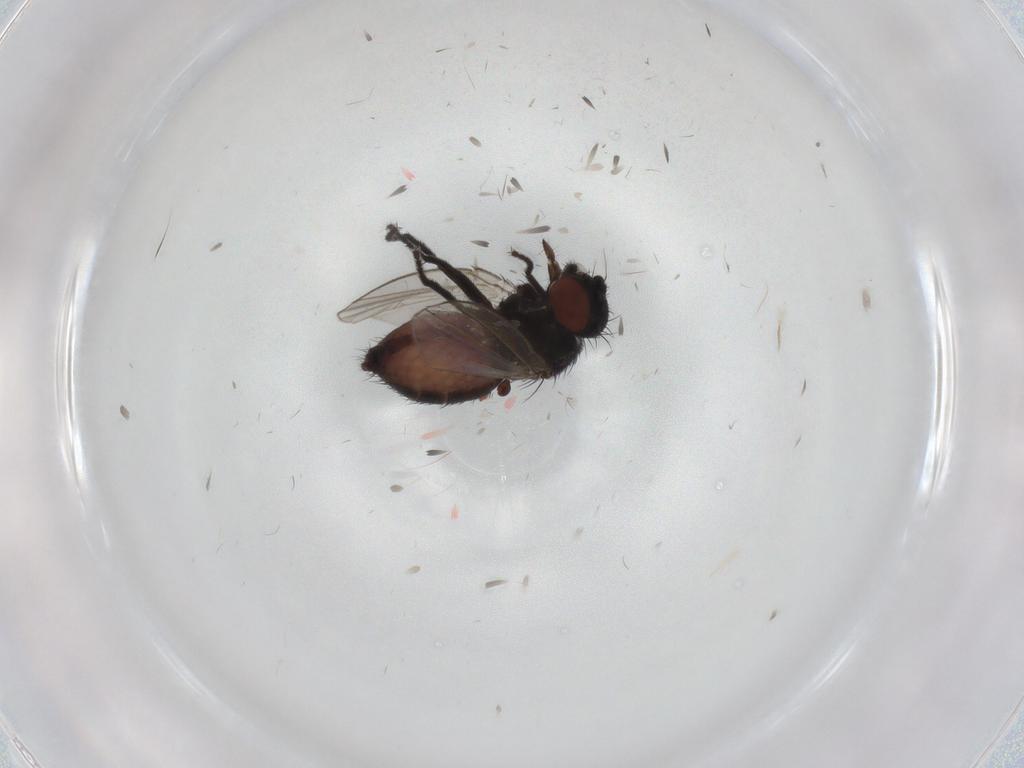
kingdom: Animalia
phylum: Arthropoda
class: Insecta
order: Diptera
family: Milichiidae
